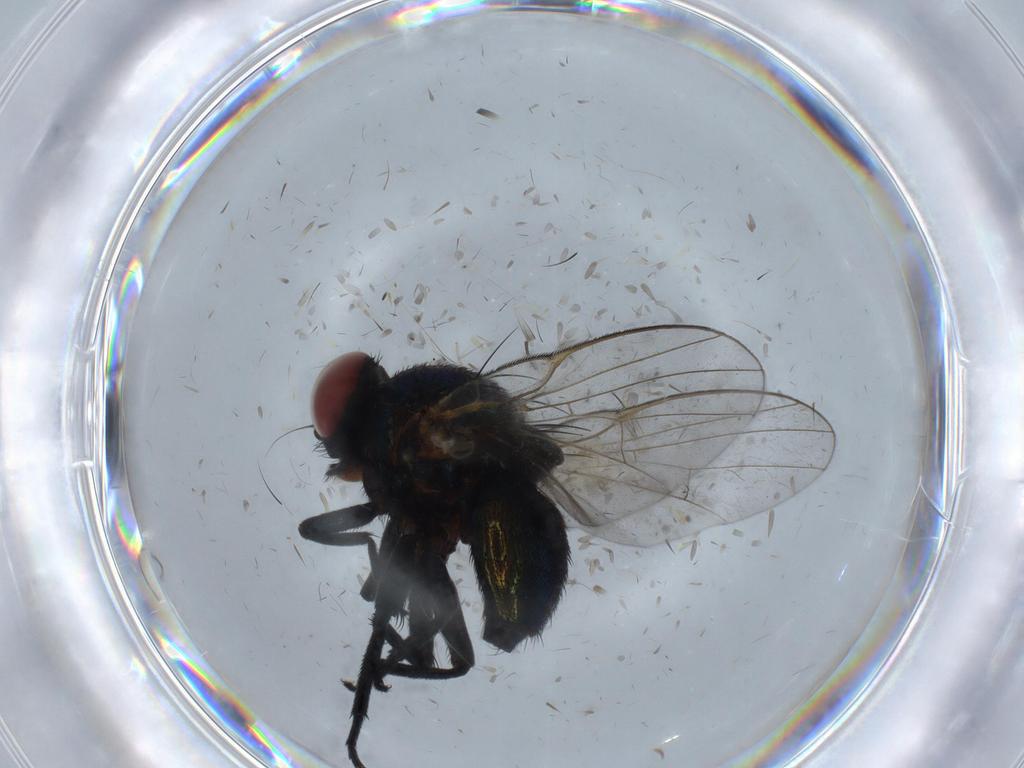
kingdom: Animalia
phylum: Arthropoda
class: Insecta
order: Diptera
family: Agromyzidae
